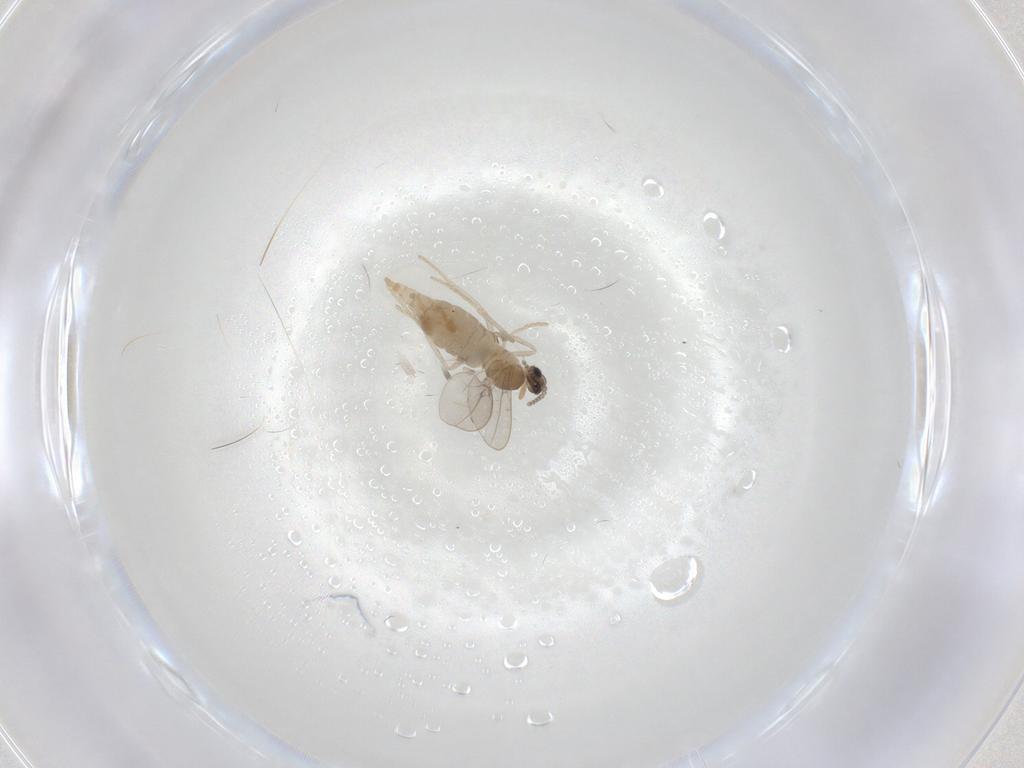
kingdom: Animalia
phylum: Arthropoda
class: Insecta
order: Diptera
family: Cecidomyiidae
